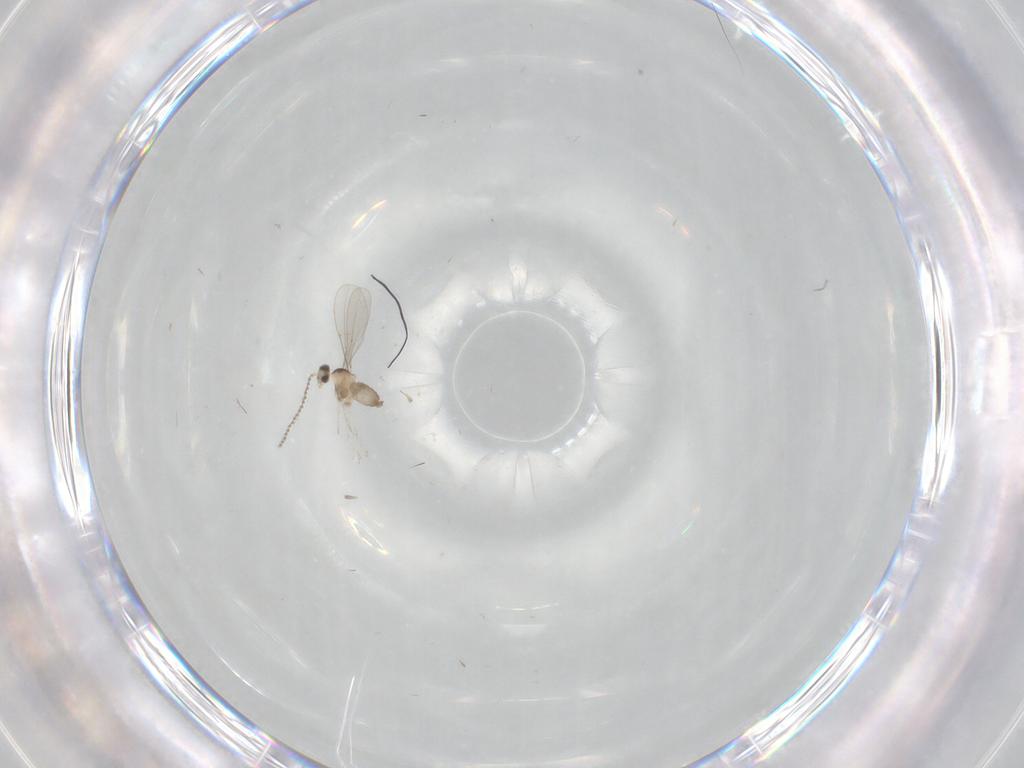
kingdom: Animalia
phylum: Arthropoda
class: Insecta
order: Diptera
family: Cecidomyiidae
